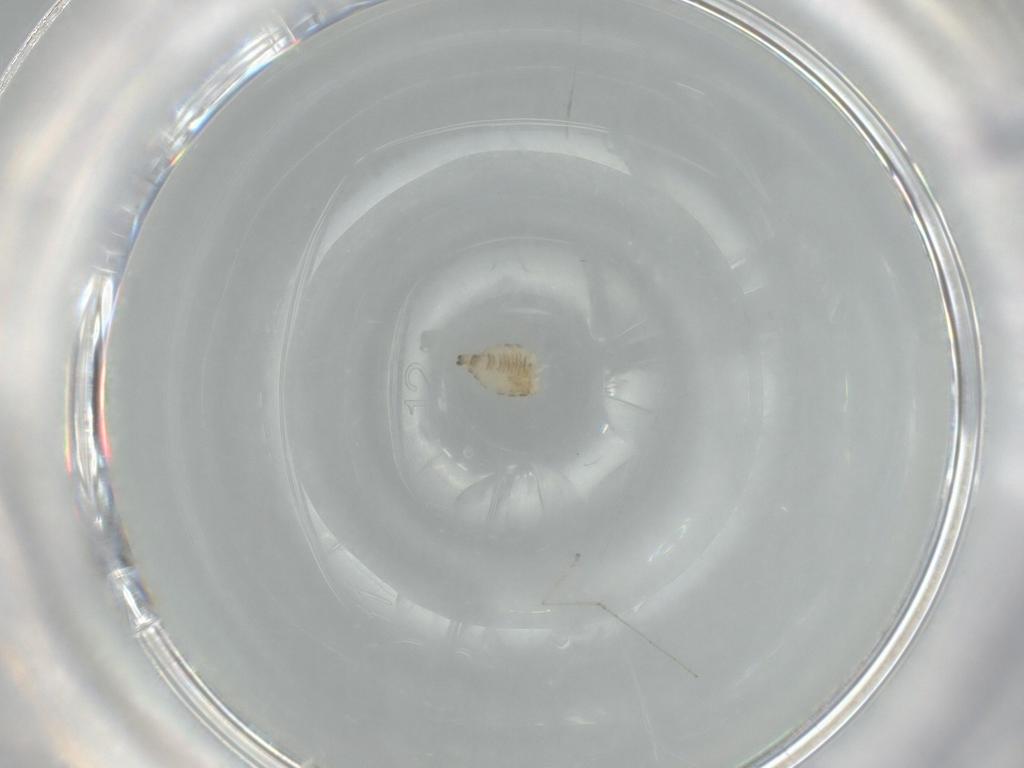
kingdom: Animalia
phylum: Arthropoda
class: Insecta
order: Diptera
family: Cecidomyiidae
